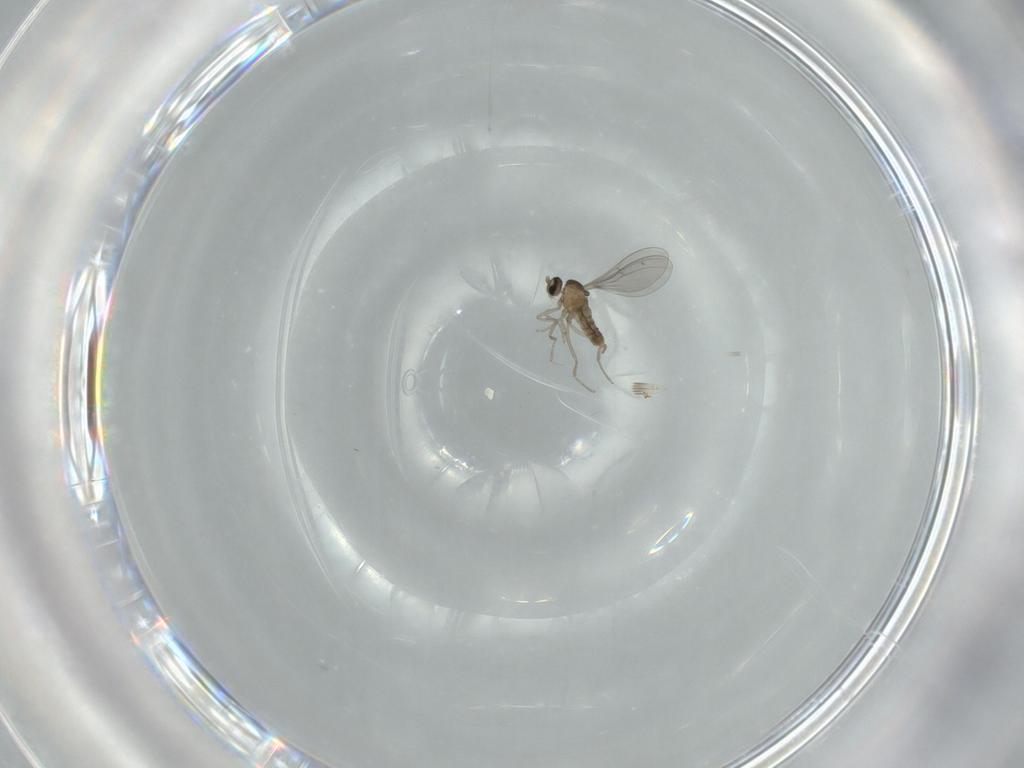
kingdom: Animalia
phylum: Arthropoda
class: Insecta
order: Diptera
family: Cecidomyiidae
